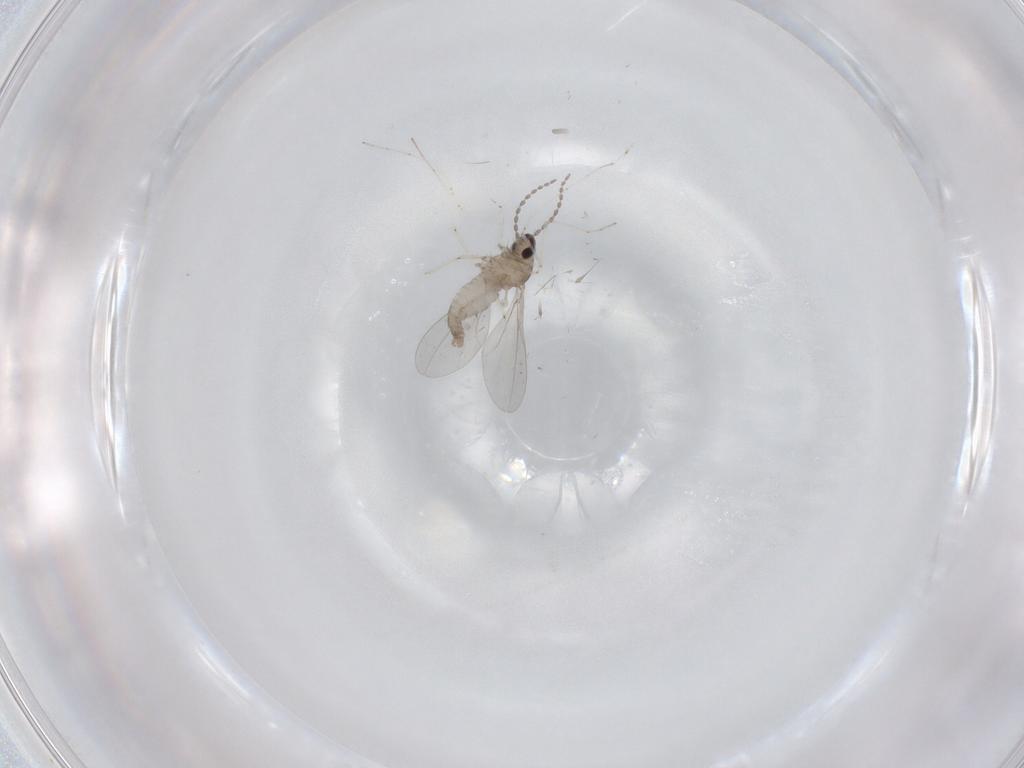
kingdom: Animalia
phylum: Arthropoda
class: Insecta
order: Diptera
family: Cecidomyiidae
